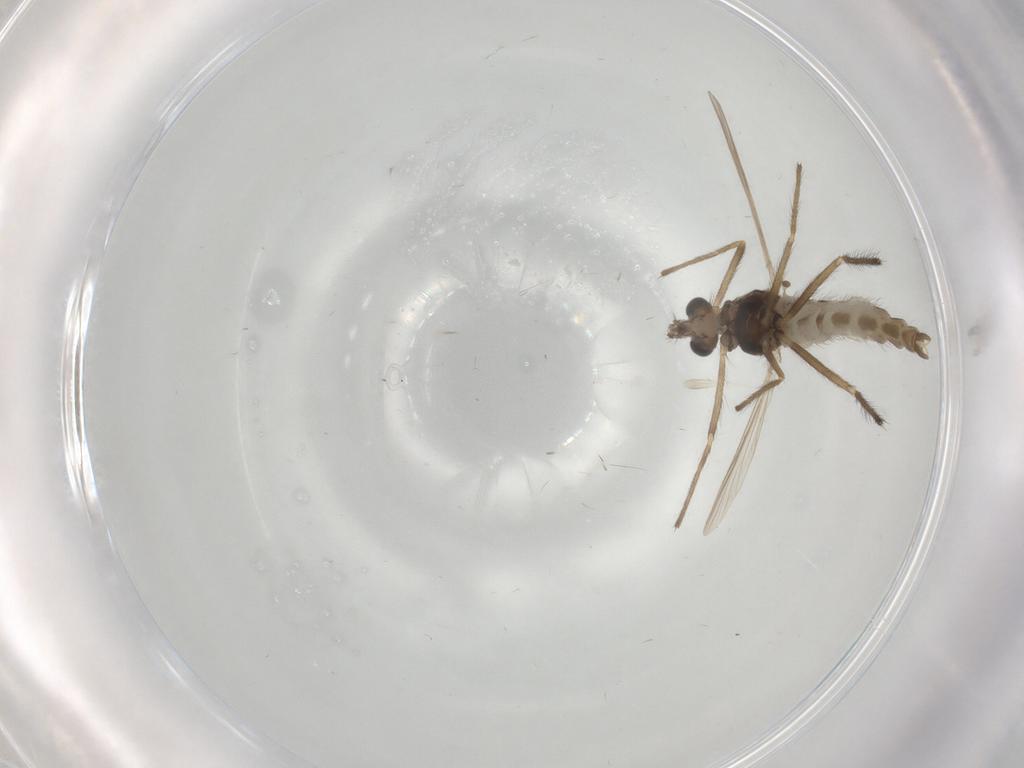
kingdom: Animalia
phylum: Arthropoda
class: Insecta
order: Diptera
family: Chironomidae
